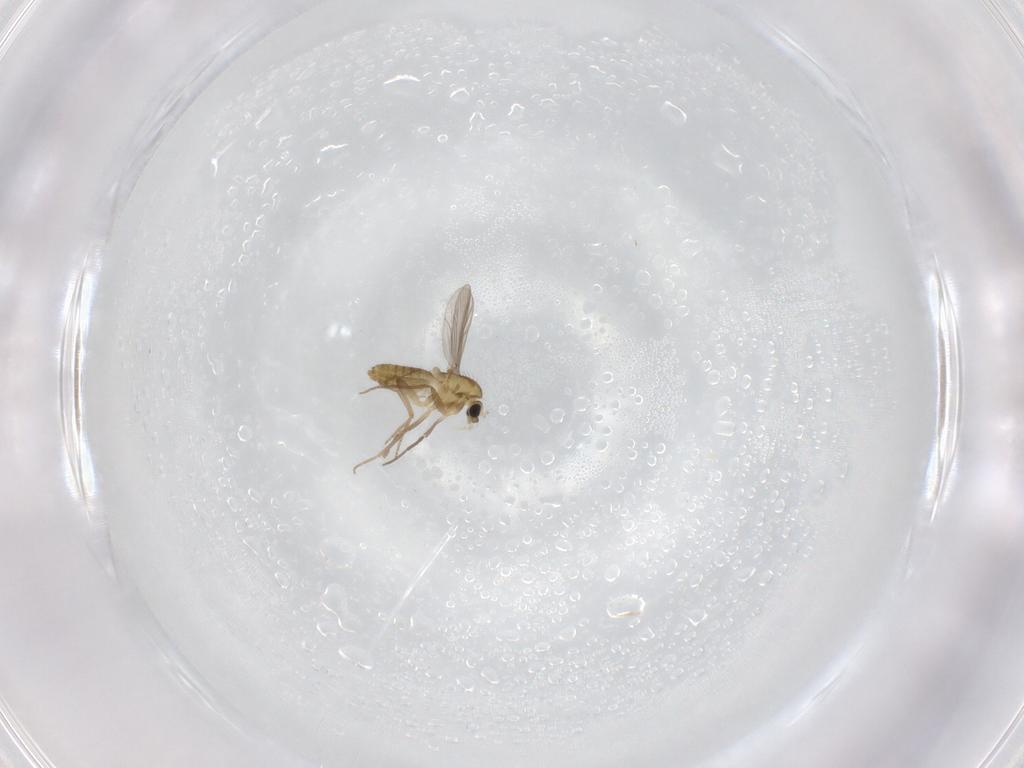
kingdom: Animalia
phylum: Arthropoda
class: Insecta
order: Diptera
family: Chironomidae
